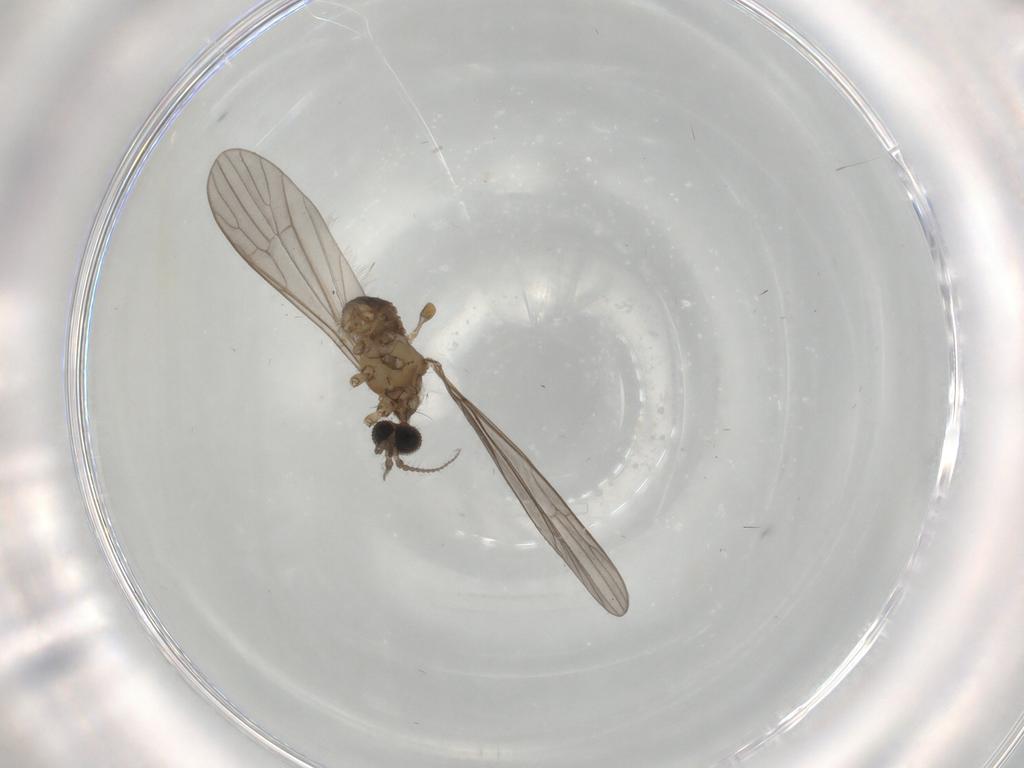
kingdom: Animalia
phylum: Arthropoda
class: Insecta
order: Diptera
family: Limoniidae
